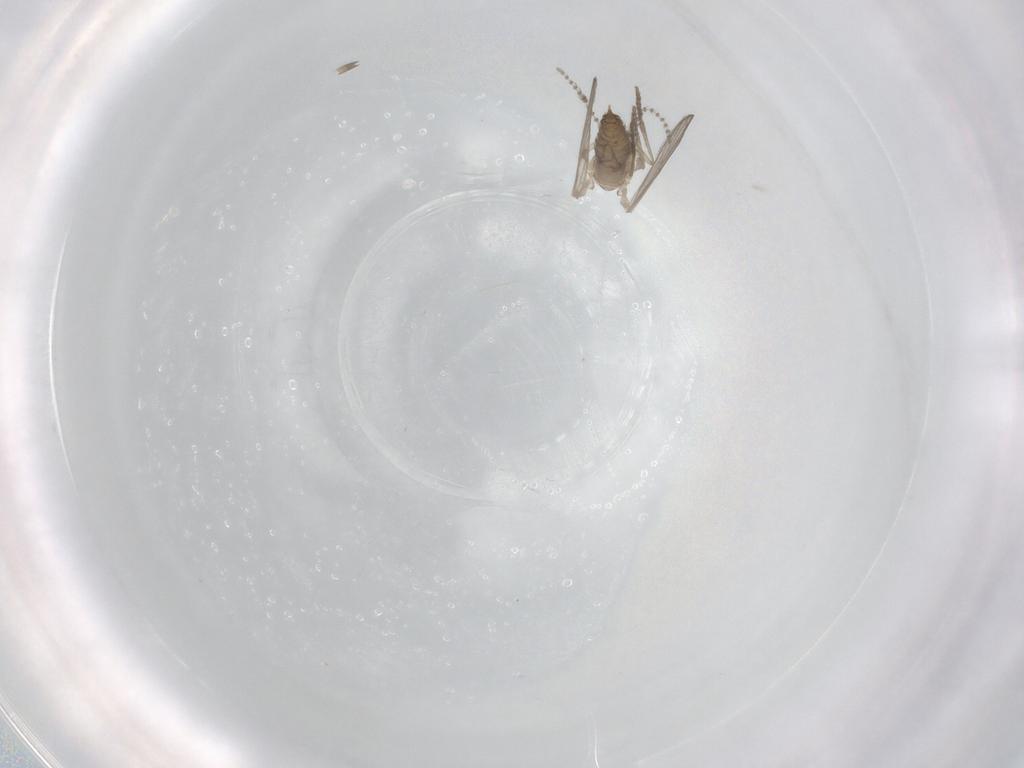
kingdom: Animalia
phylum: Arthropoda
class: Insecta
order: Diptera
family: Psychodidae
